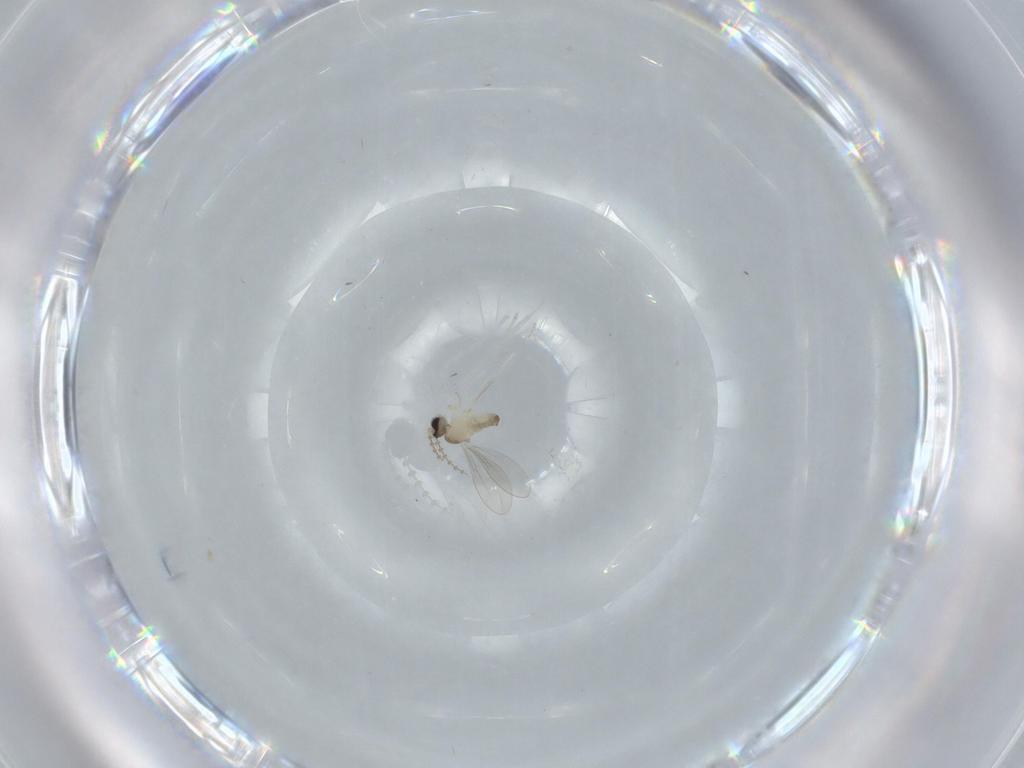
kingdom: Animalia
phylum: Arthropoda
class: Insecta
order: Diptera
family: Cecidomyiidae
